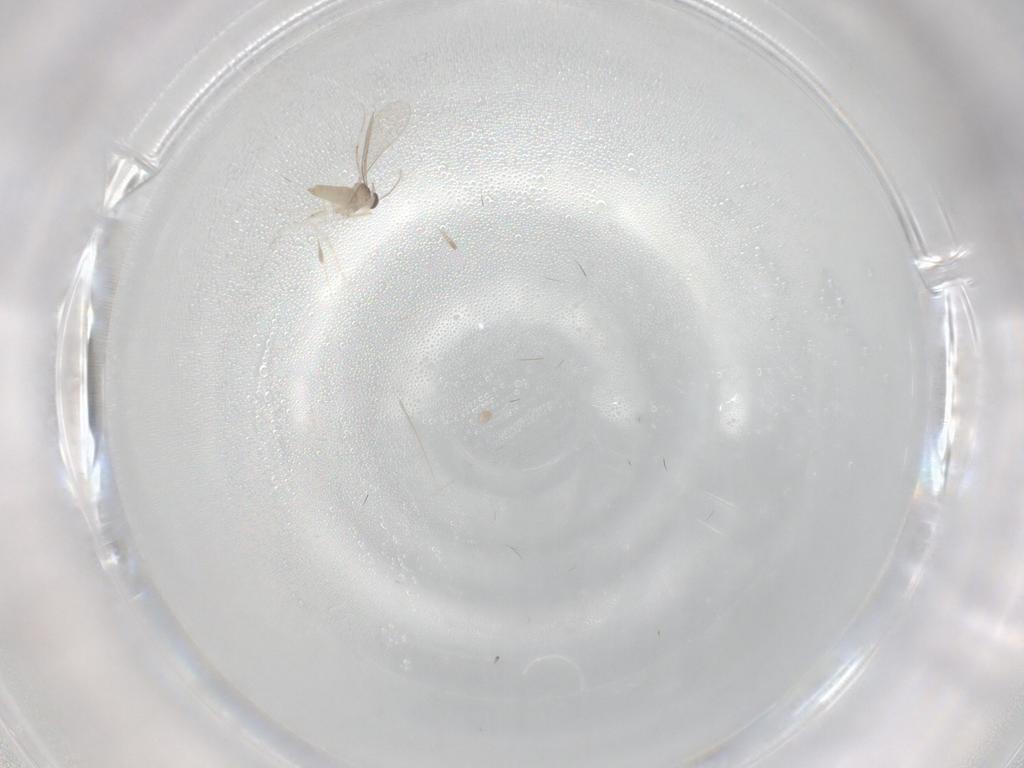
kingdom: Animalia
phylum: Arthropoda
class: Insecta
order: Diptera
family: Cecidomyiidae
